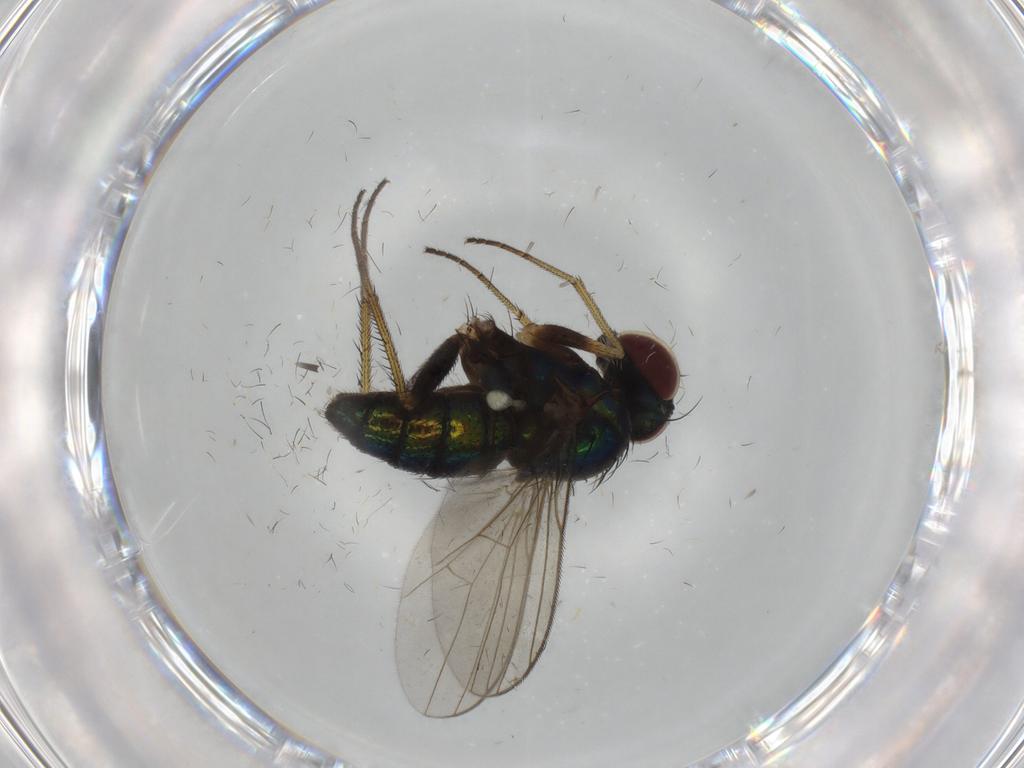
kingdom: Animalia
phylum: Arthropoda
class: Insecta
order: Diptera
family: Dolichopodidae
